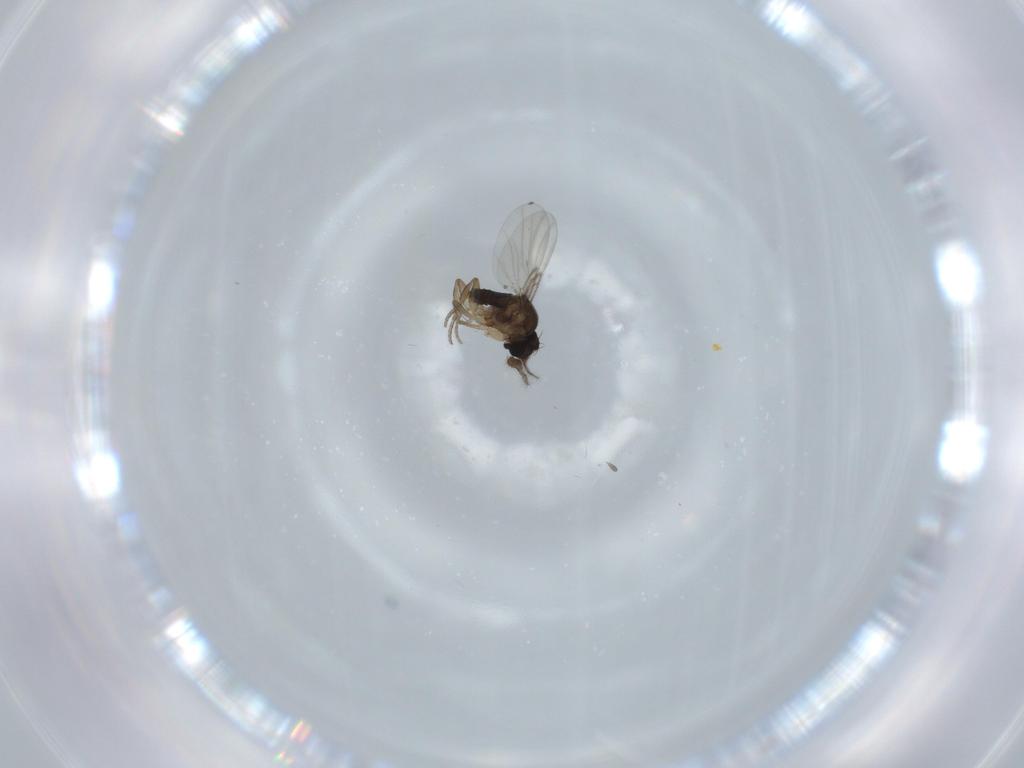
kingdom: Animalia
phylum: Arthropoda
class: Insecta
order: Diptera
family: Phoridae
